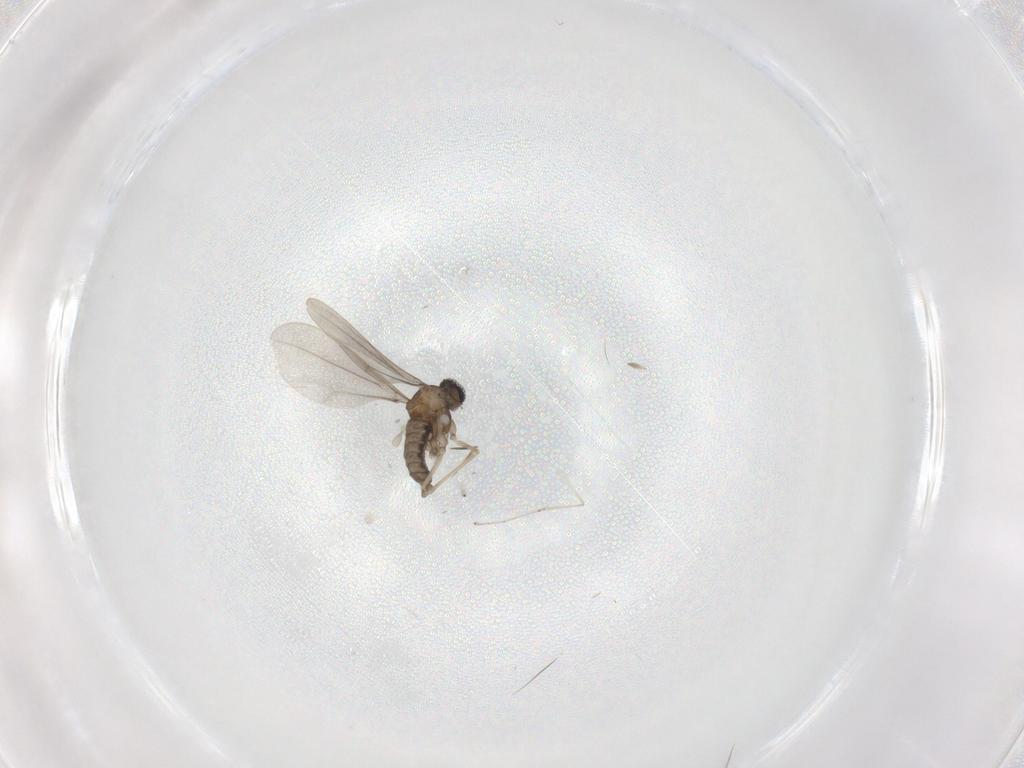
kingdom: Animalia
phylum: Arthropoda
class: Insecta
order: Diptera
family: Cecidomyiidae
